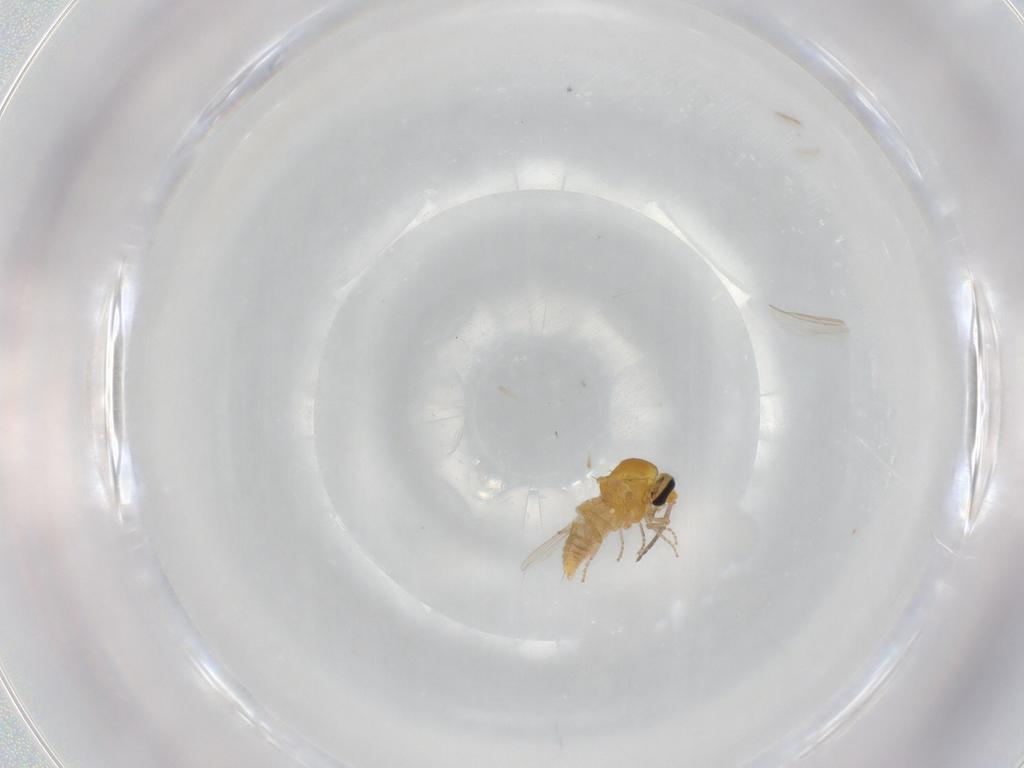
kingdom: Animalia
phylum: Arthropoda
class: Insecta
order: Diptera
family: Ceratopogonidae
